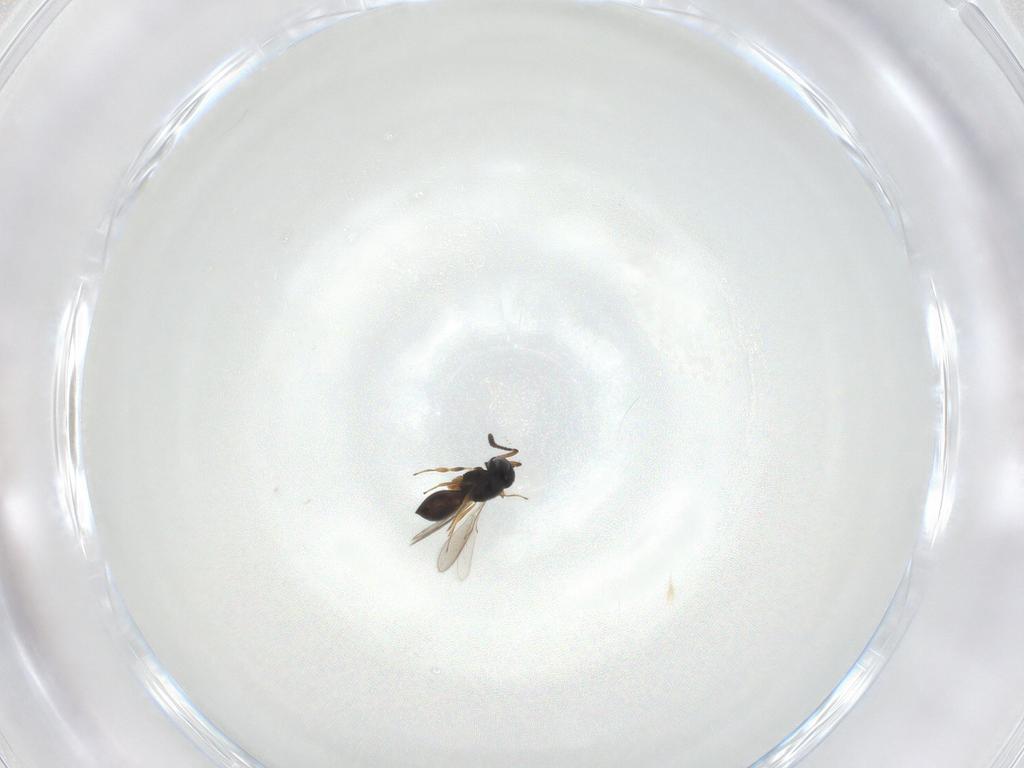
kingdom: Animalia
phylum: Arthropoda
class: Insecta
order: Hymenoptera
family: Scelionidae
